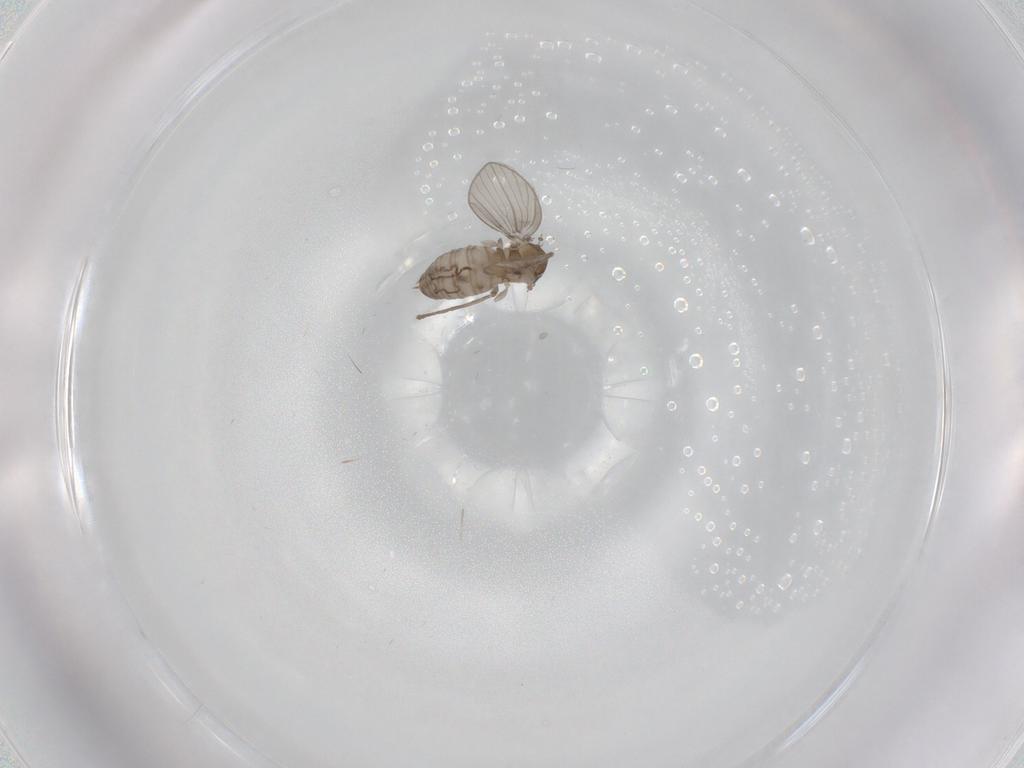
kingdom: Animalia
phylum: Arthropoda
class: Insecta
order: Diptera
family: Psychodidae
